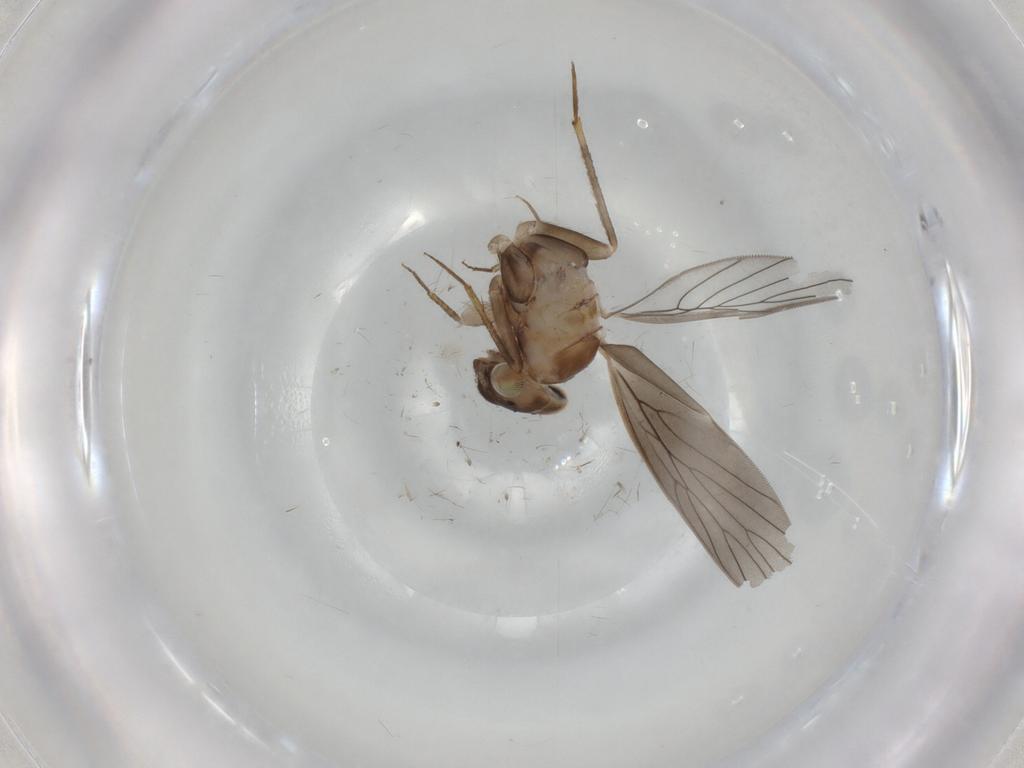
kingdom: Animalia
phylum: Arthropoda
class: Insecta
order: Psocodea
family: Lepidopsocidae
